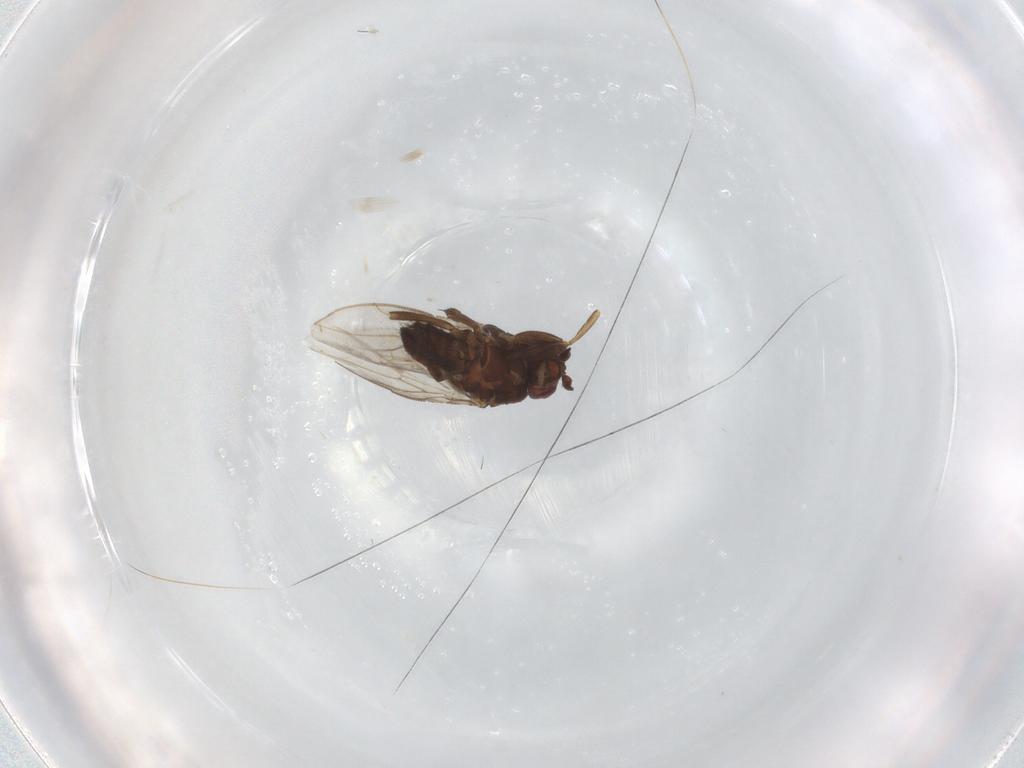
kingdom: Animalia
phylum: Arthropoda
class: Insecta
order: Diptera
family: Sphaeroceridae
